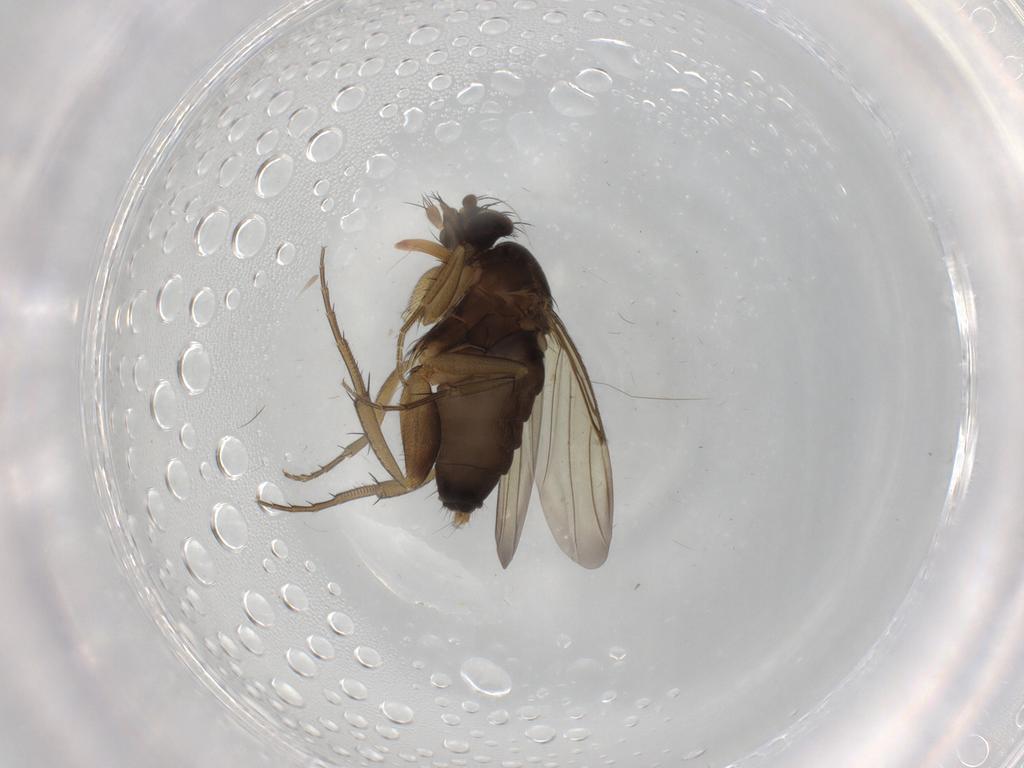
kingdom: Animalia
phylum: Arthropoda
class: Insecta
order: Diptera
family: Phoridae
